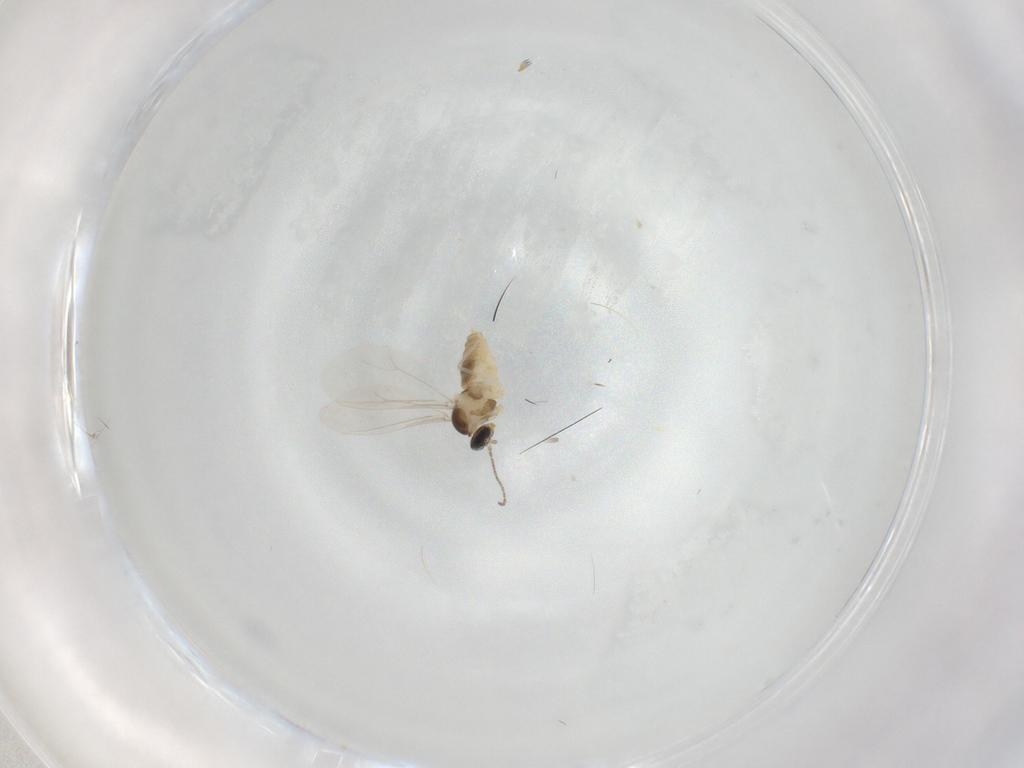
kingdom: Animalia
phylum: Arthropoda
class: Insecta
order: Diptera
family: Cecidomyiidae
